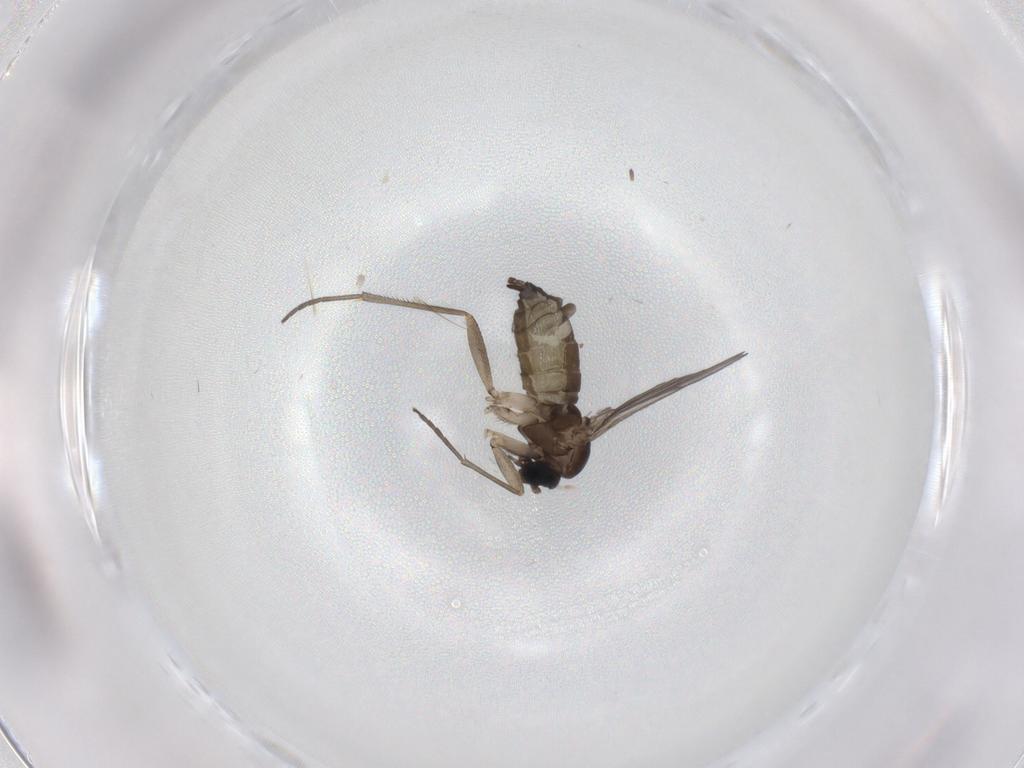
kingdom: Animalia
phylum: Arthropoda
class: Insecta
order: Diptera
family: Sciaridae
